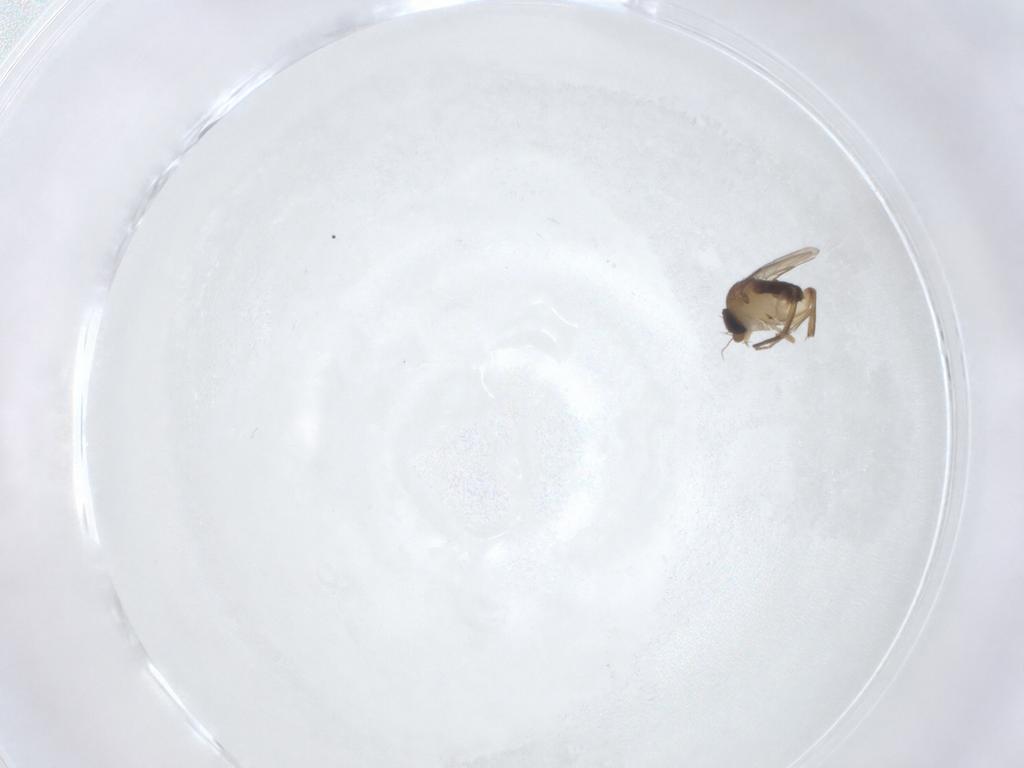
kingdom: Animalia
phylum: Arthropoda
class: Insecta
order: Diptera
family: Phoridae
